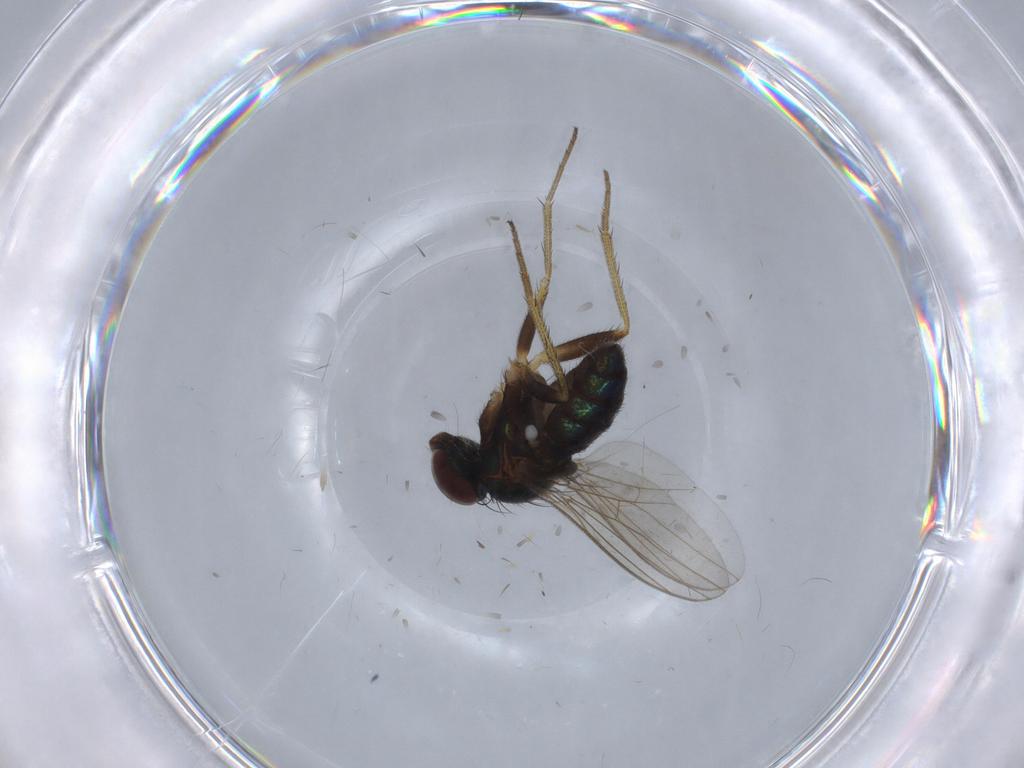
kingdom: Animalia
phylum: Arthropoda
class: Insecta
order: Diptera
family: Dolichopodidae
